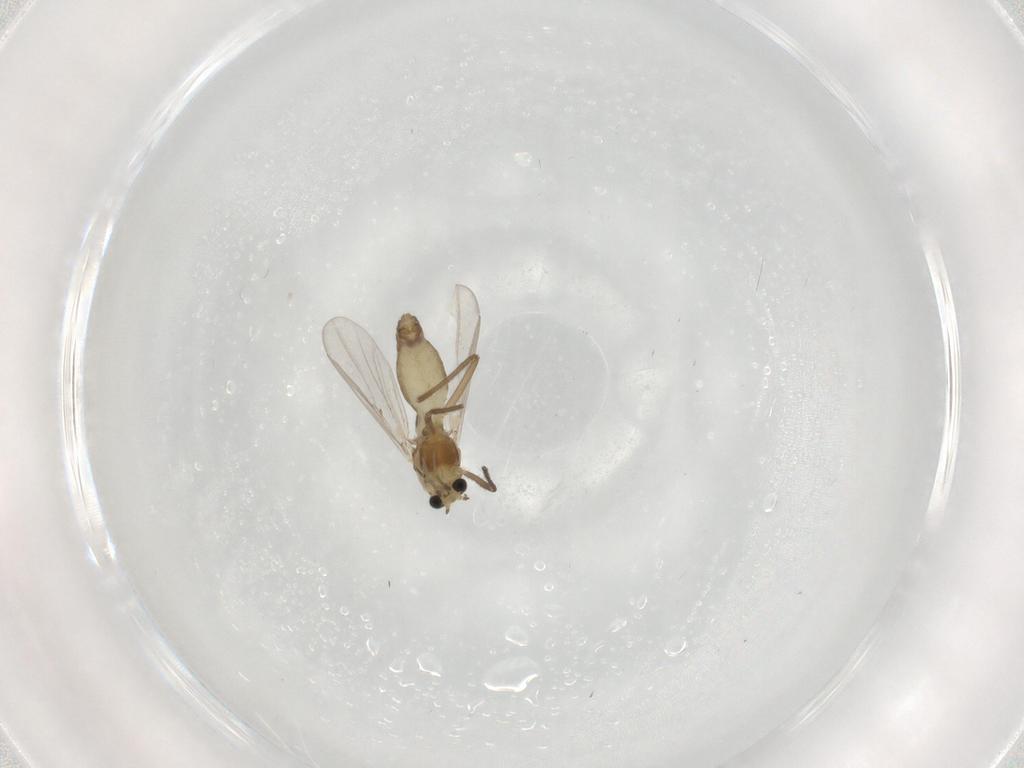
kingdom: Animalia
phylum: Arthropoda
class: Insecta
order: Diptera
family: Chironomidae
